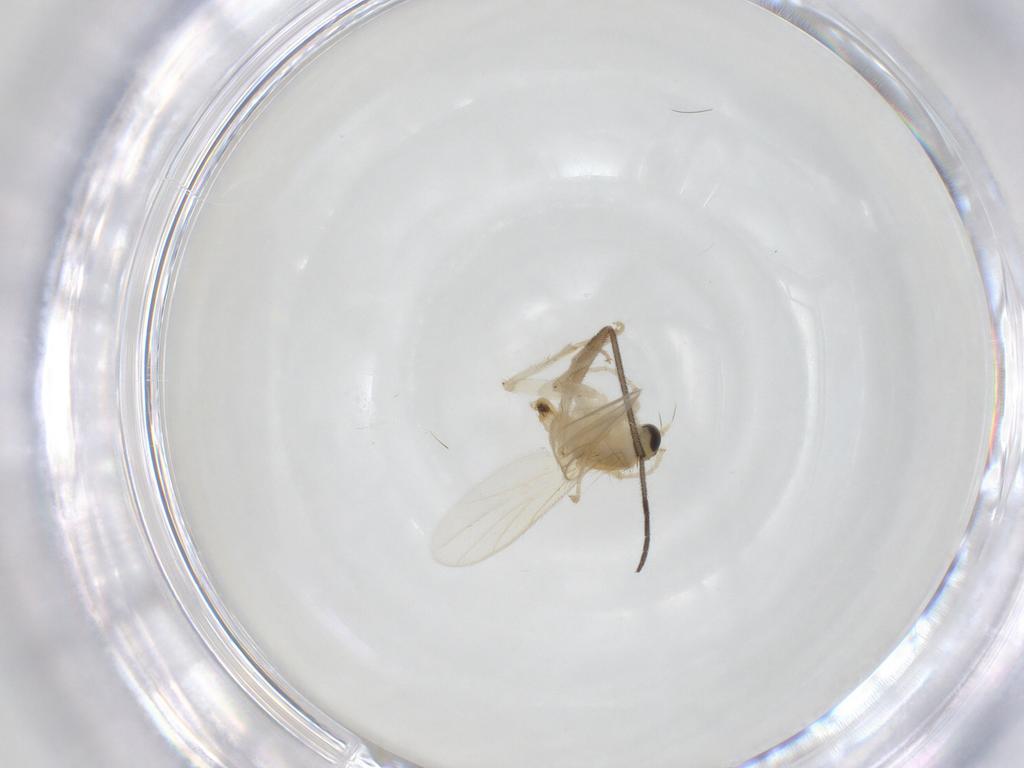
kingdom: Animalia
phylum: Arthropoda
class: Insecta
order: Diptera
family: Hybotidae
